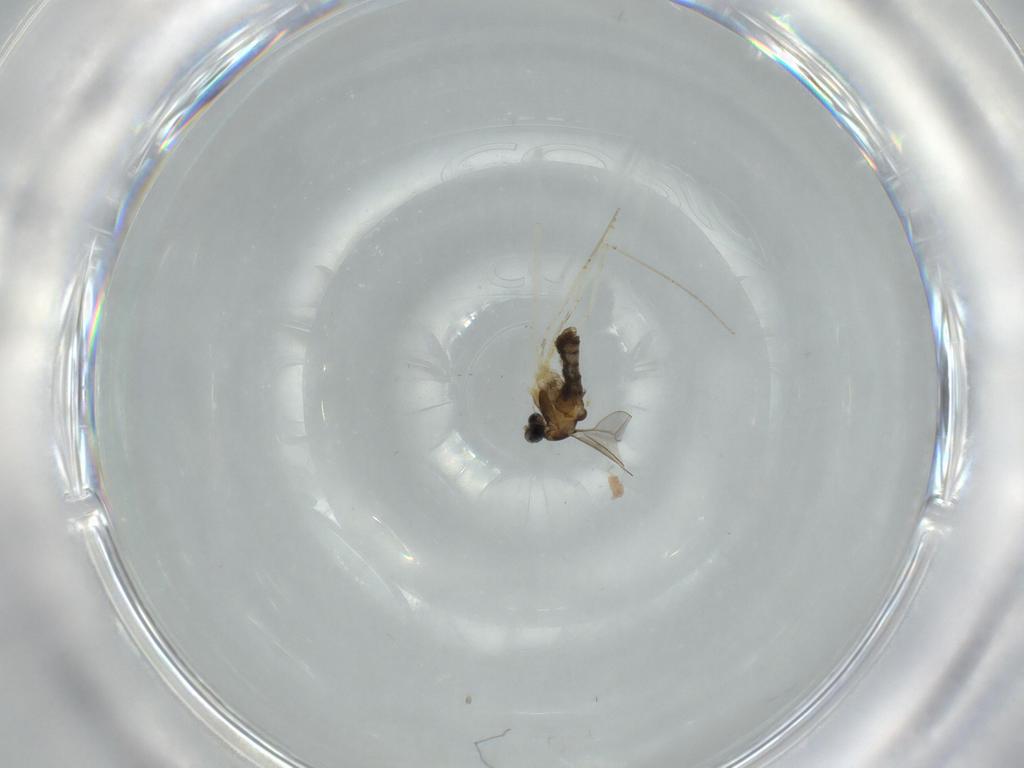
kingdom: Animalia
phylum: Arthropoda
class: Insecta
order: Diptera
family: Cecidomyiidae
